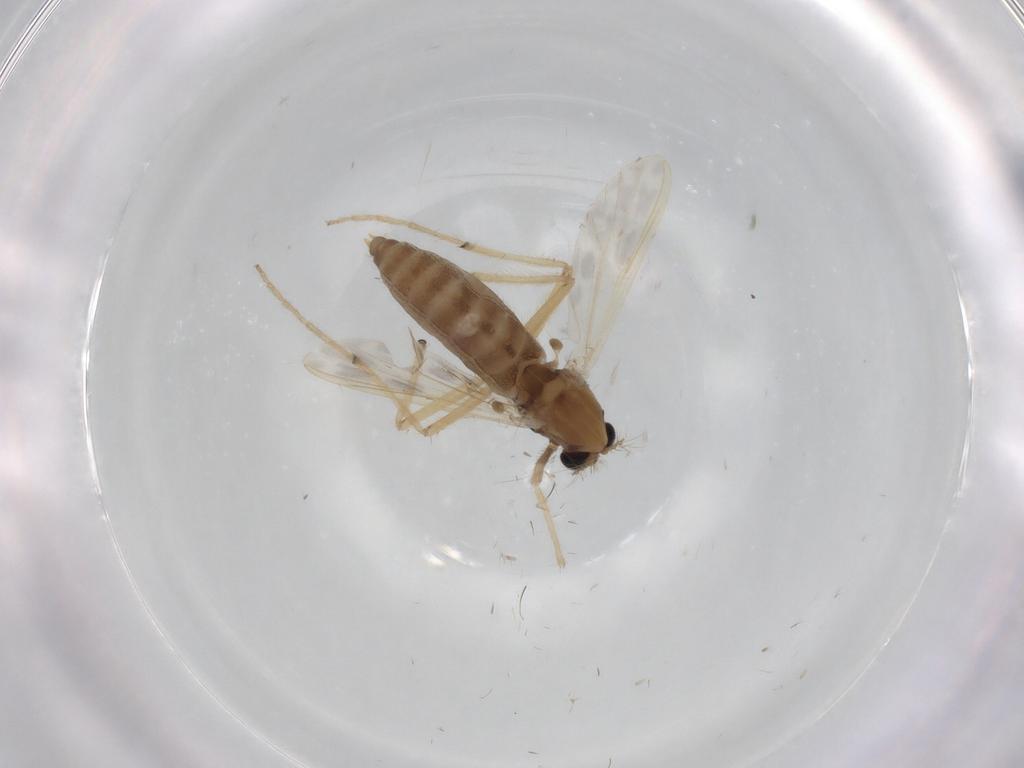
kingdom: Animalia
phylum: Arthropoda
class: Insecta
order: Diptera
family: Chironomidae
